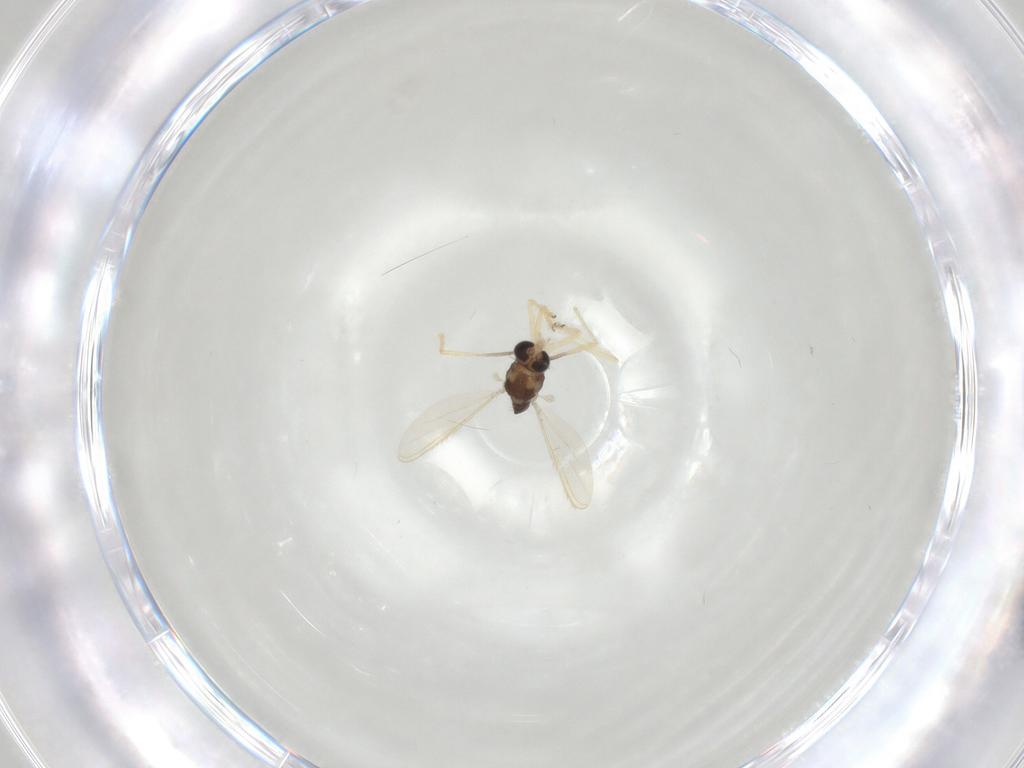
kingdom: Animalia
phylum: Arthropoda
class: Insecta
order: Diptera
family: Chironomidae
